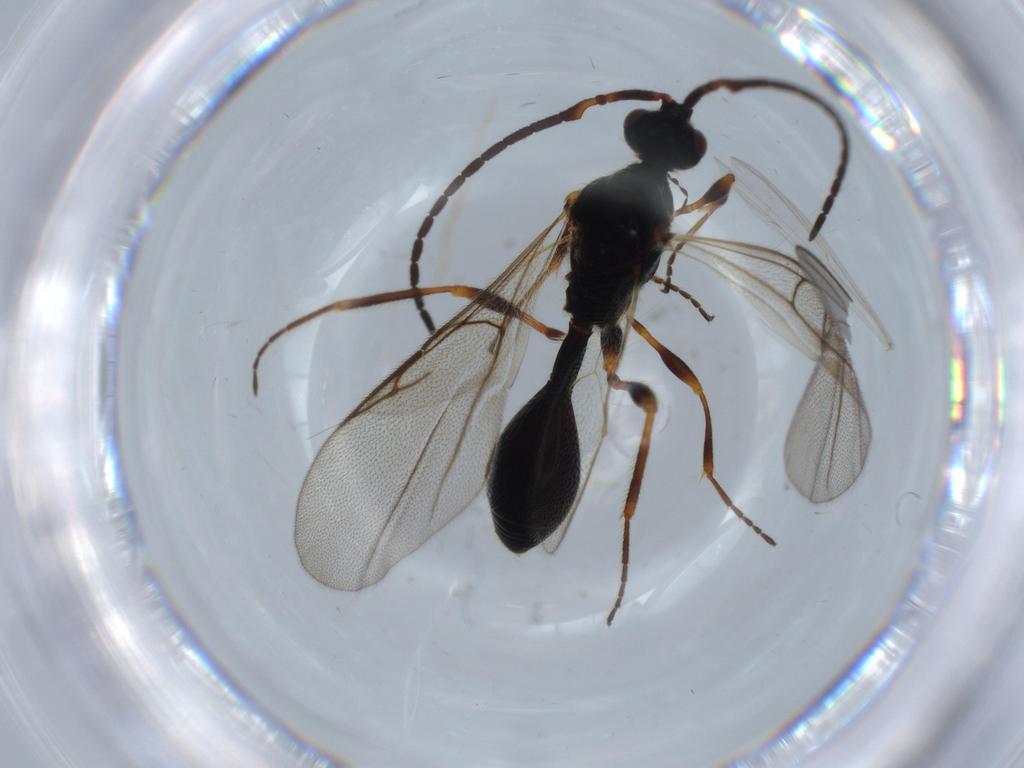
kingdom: Animalia
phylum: Arthropoda
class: Insecta
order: Hymenoptera
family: Diapriidae
